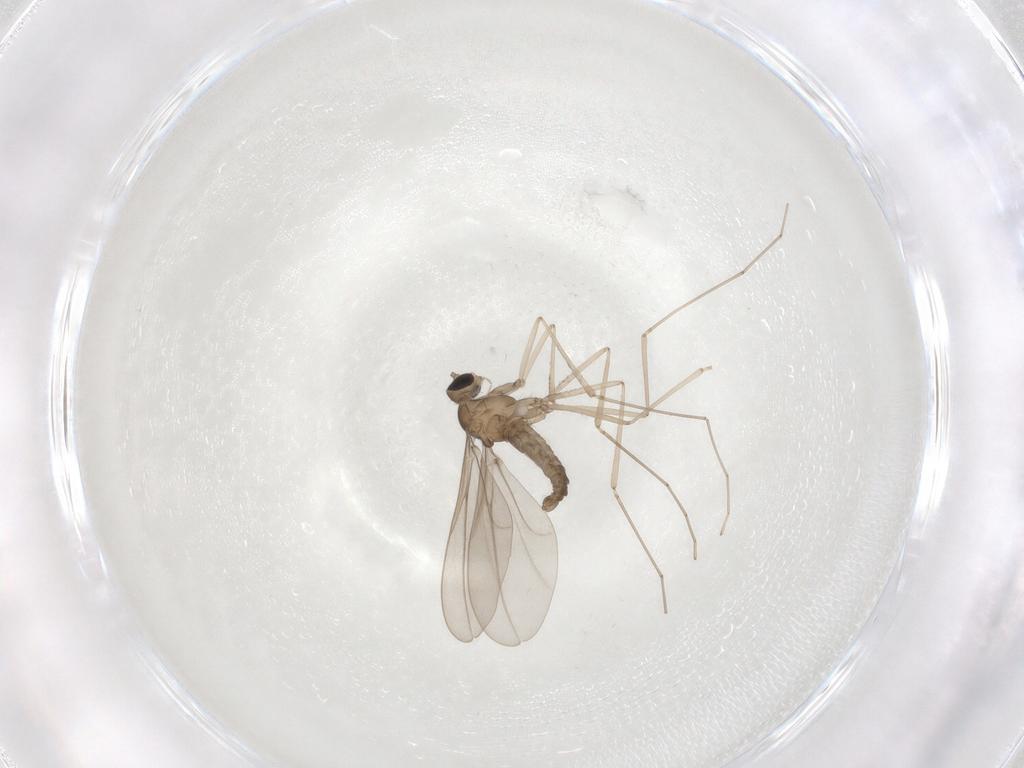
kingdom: Animalia
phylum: Arthropoda
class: Insecta
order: Diptera
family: Cecidomyiidae
